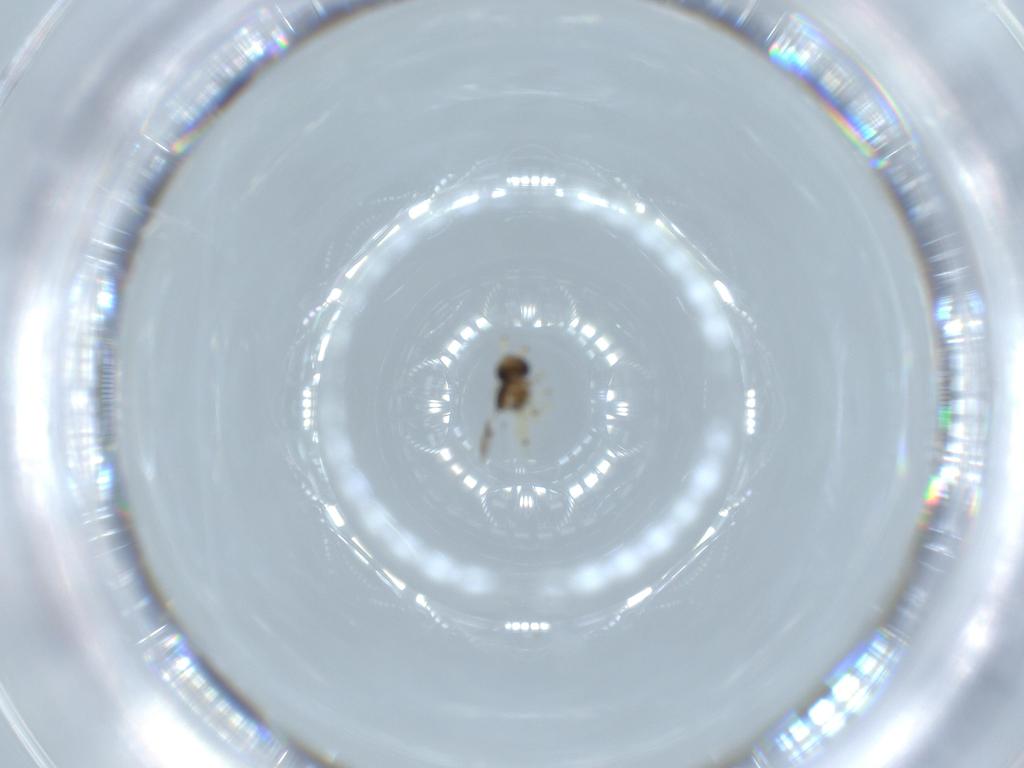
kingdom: Animalia
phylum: Arthropoda
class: Insecta
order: Hymenoptera
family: Scelionidae
